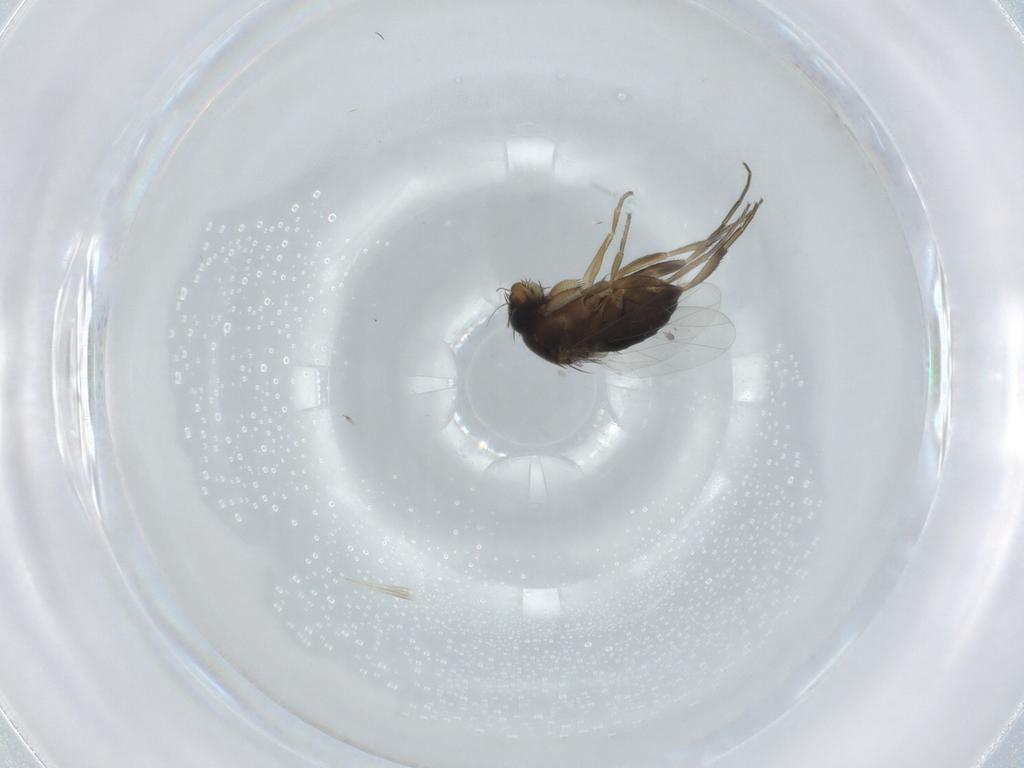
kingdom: Animalia
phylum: Arthropoda
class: Insecta
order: Diptera
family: Phoridae
